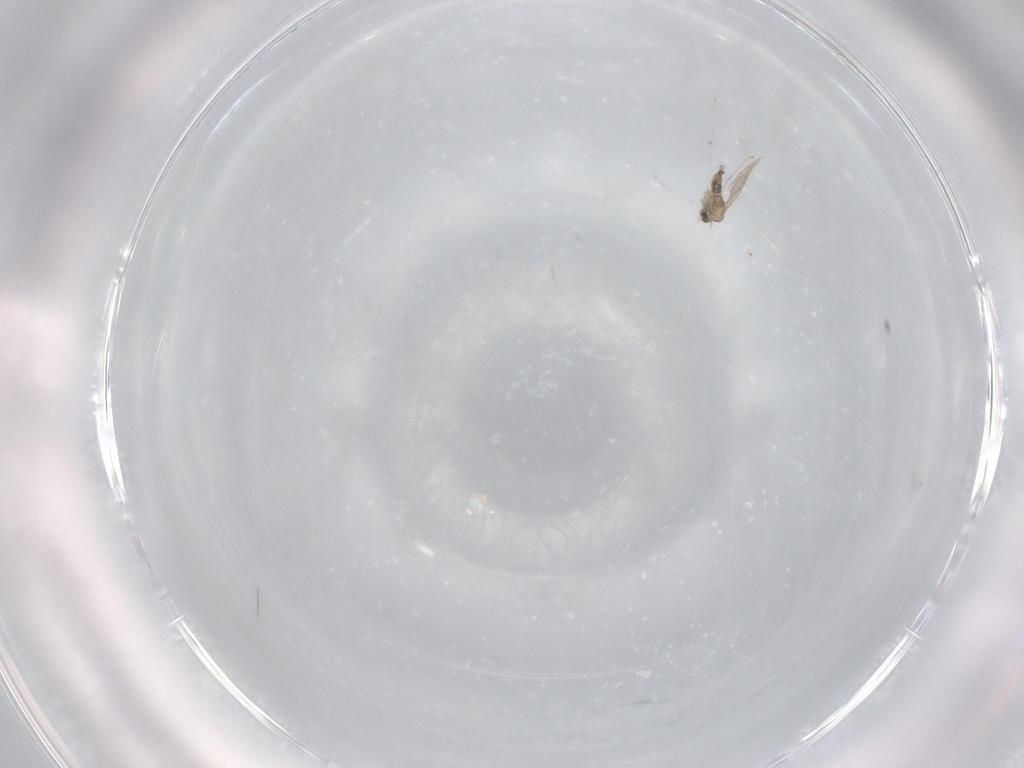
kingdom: Animalia
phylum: Arthropoda
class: Insecta
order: Diptera
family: Cecidomyiidae
